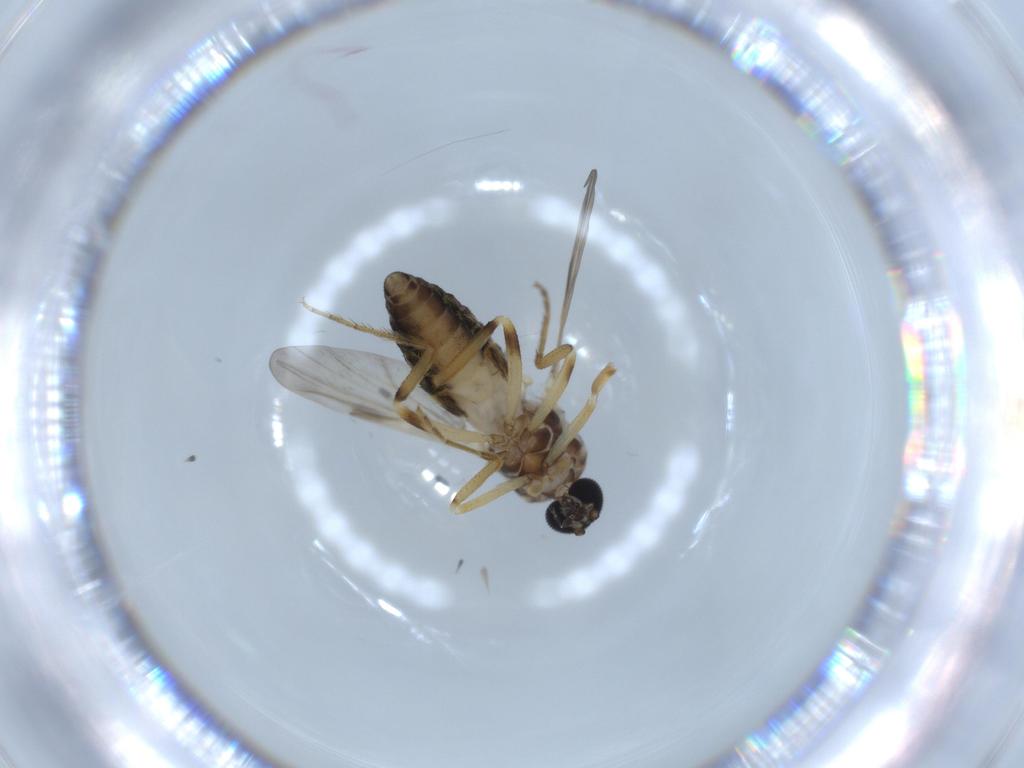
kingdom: Animalia
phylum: Arthropoda
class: Insecta
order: Diptera
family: Ceratopogonidae
